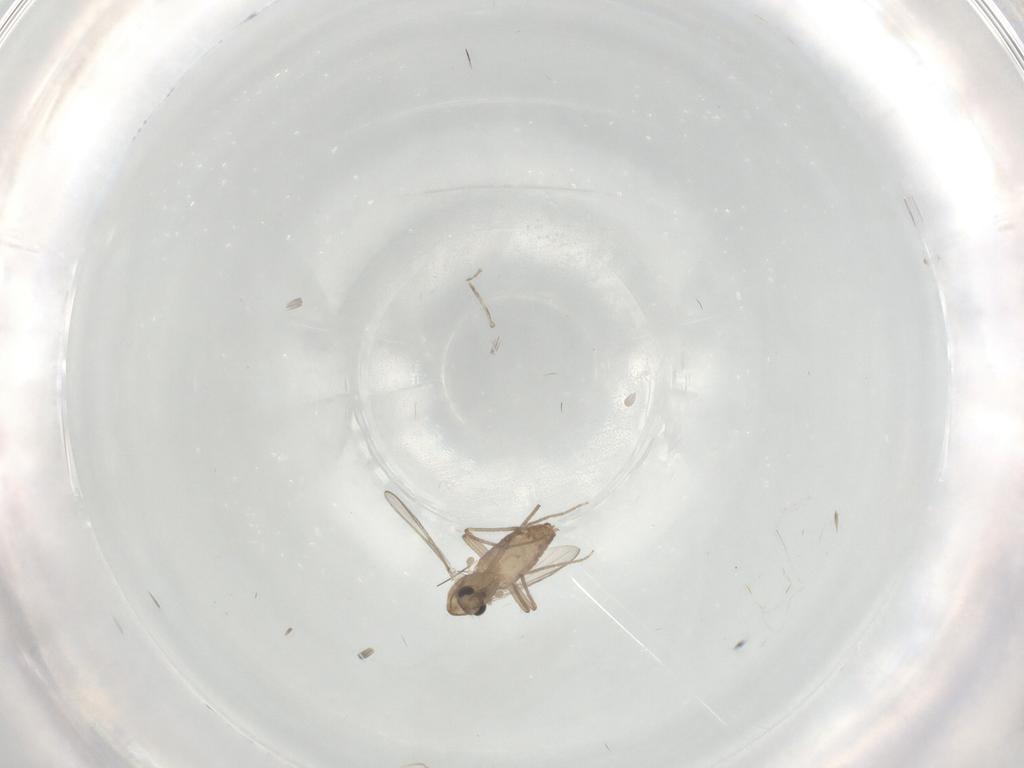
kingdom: Animalia
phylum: Arthropoda
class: Insecta
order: Diptera
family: Chironomidae
